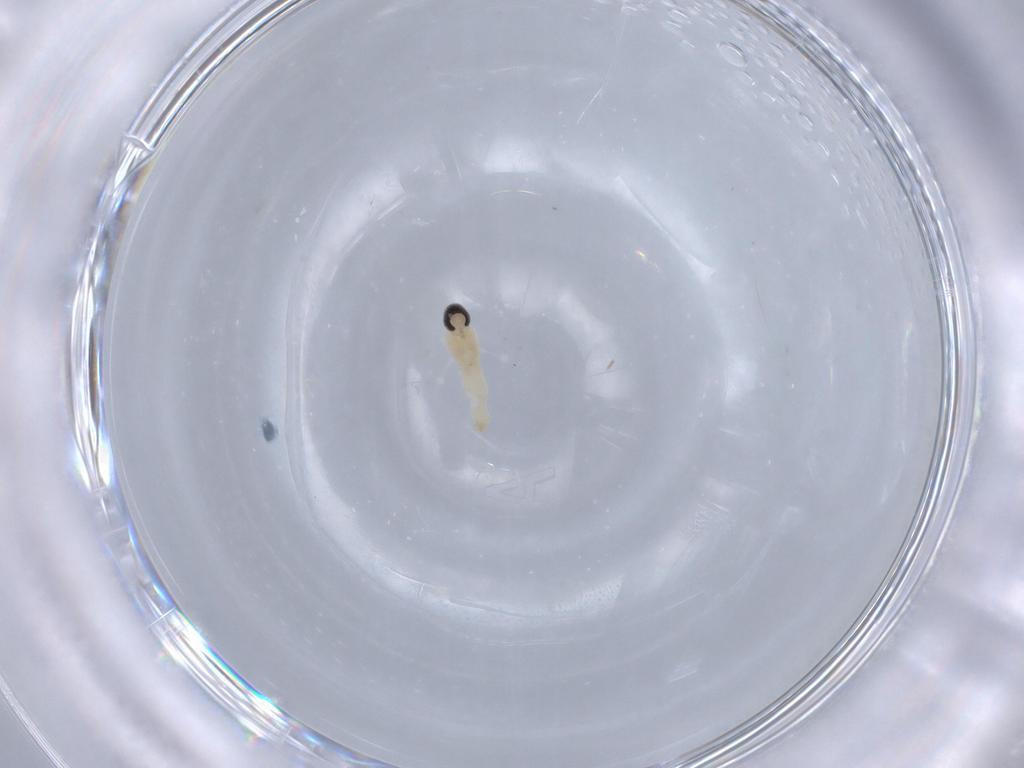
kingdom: Animalia
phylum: Arthropoda
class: Insecta
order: Diptera
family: Cecidomyiidae
